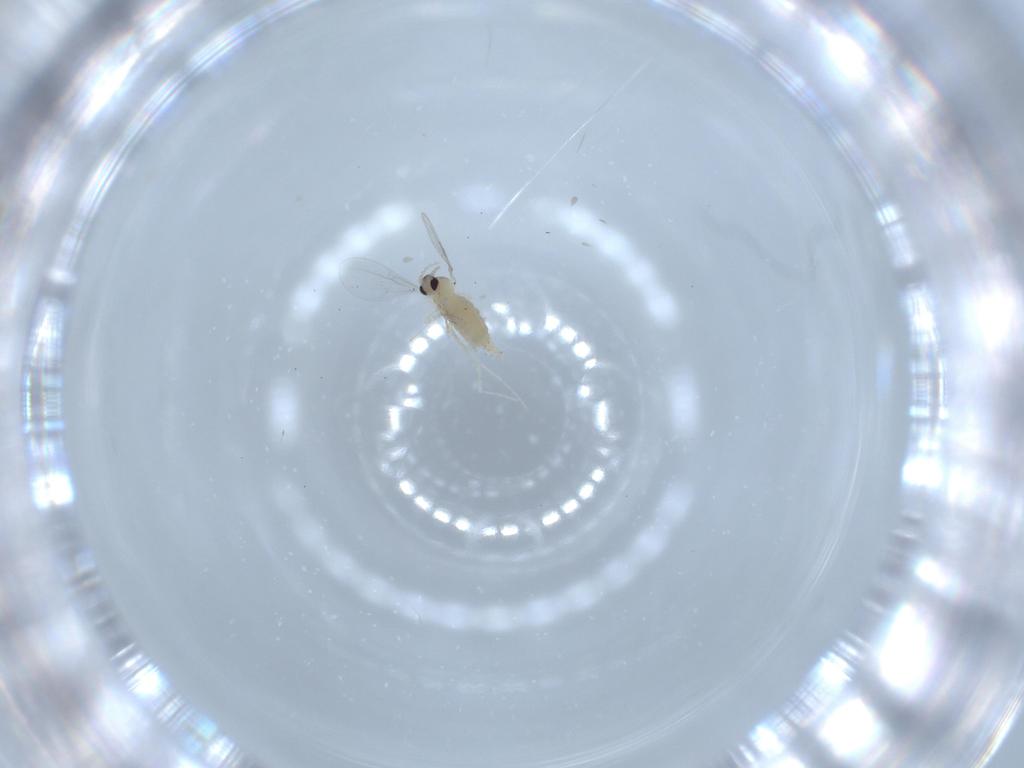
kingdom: Animalia
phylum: Arthropoda
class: Insecta
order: Diptera
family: Cecidomyiidae
